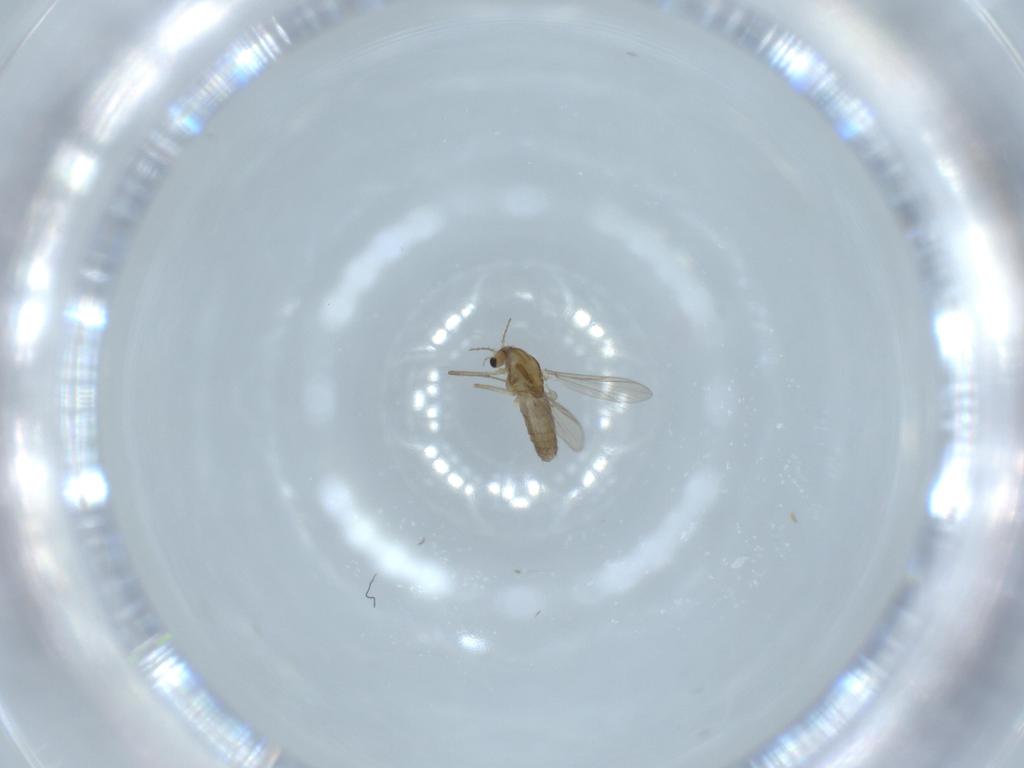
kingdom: Animalia
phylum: Arthropoda
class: Insecta
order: Diptera
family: Chironomidae
